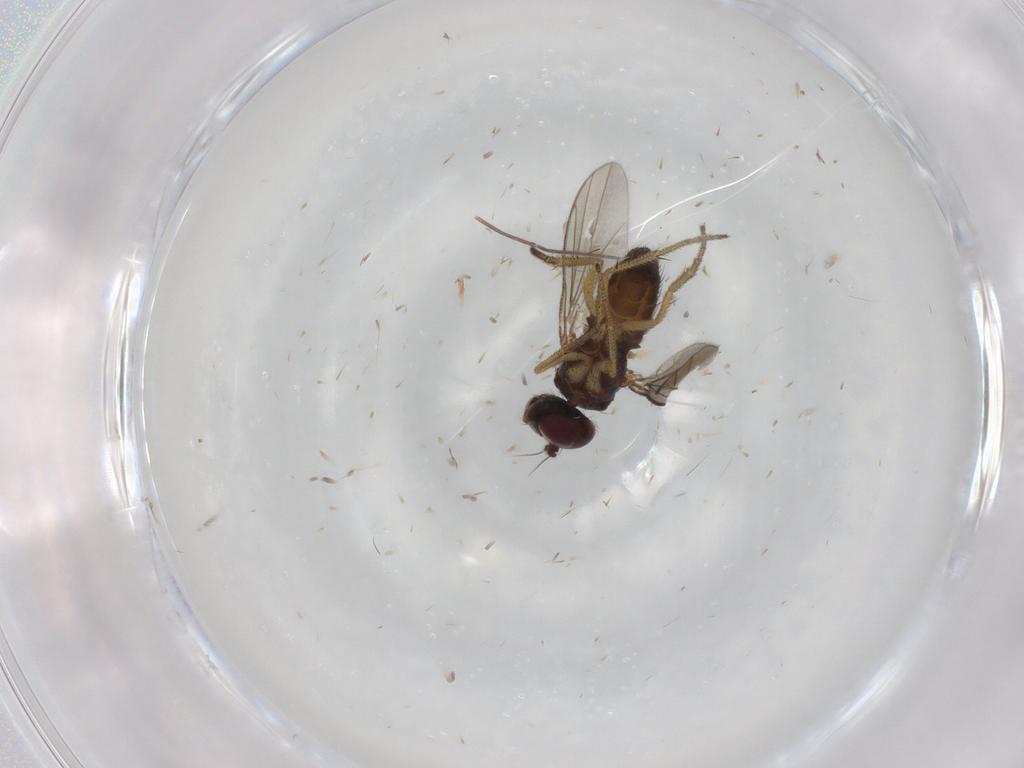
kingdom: Animalia
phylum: Arthropoda
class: Insecta
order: Diptera
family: Dolichopodidae
